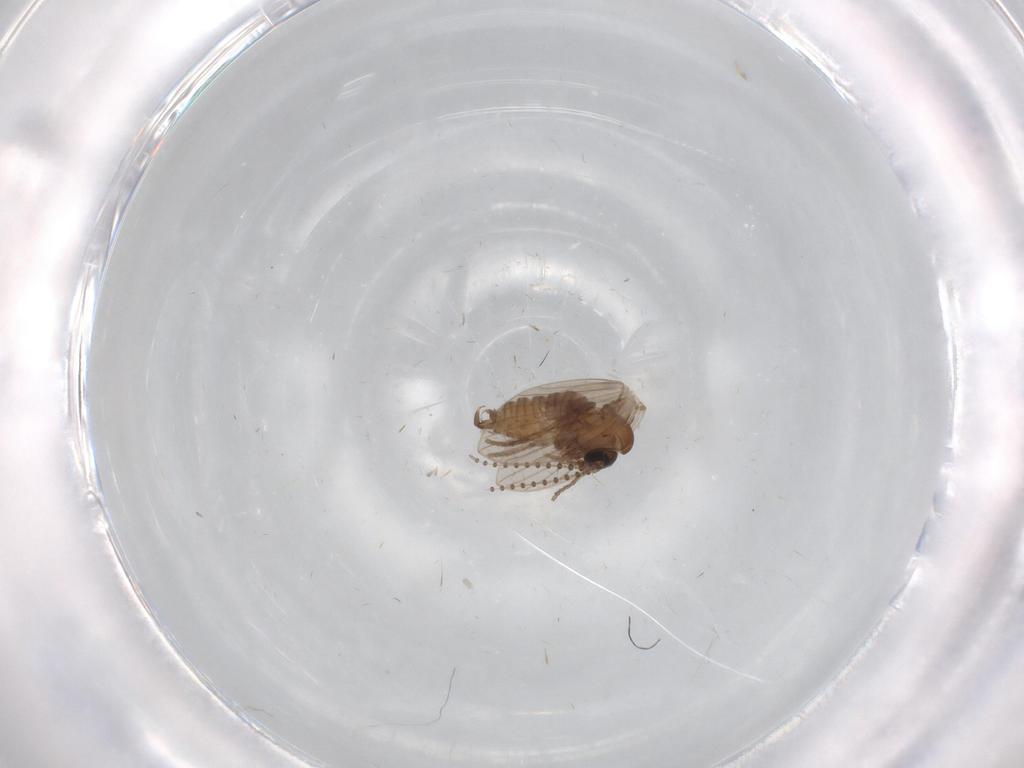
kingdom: Animalia
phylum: Arthropoda
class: Insecta
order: Diptera
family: Psychodidae
